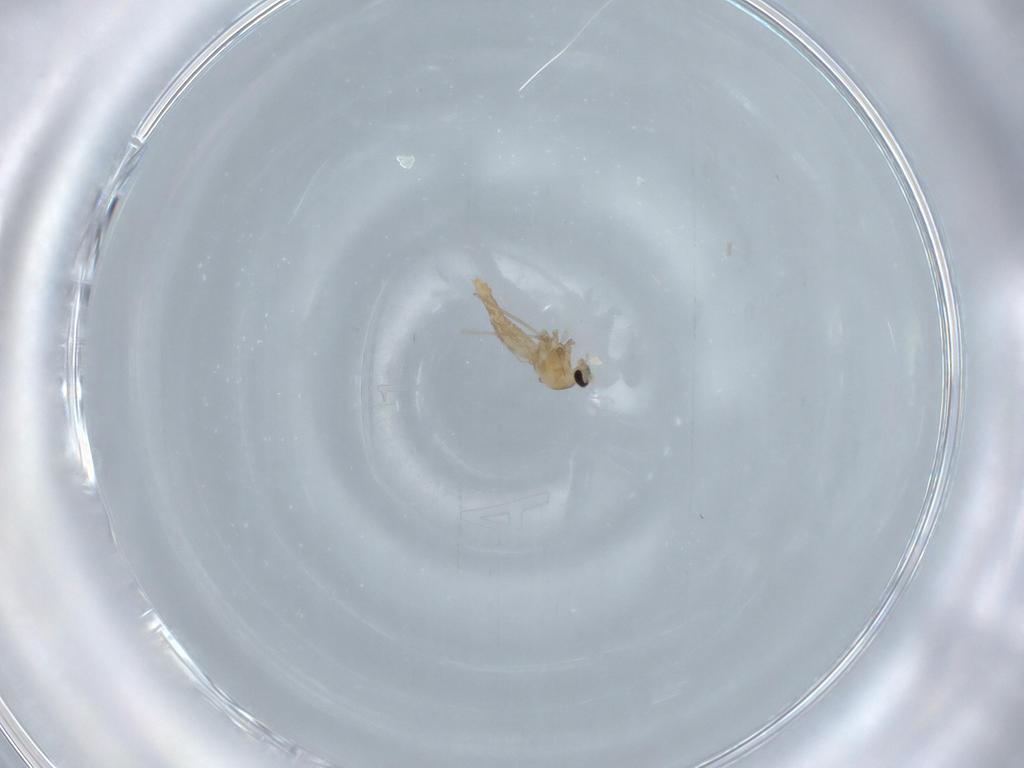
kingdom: Animalia
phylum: Arthropoda
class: Insecta
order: Diptera
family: Cecidomyiidae
